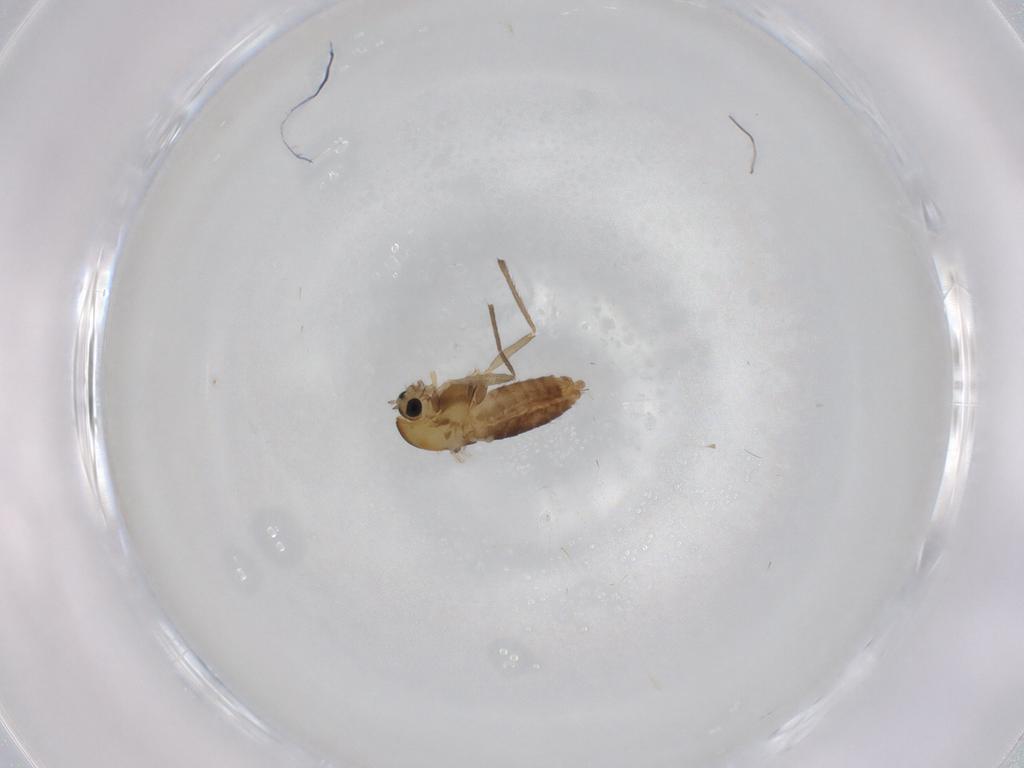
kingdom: Animalia
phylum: Arthropoda
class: Insecta
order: Diptera
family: Chironomidae
